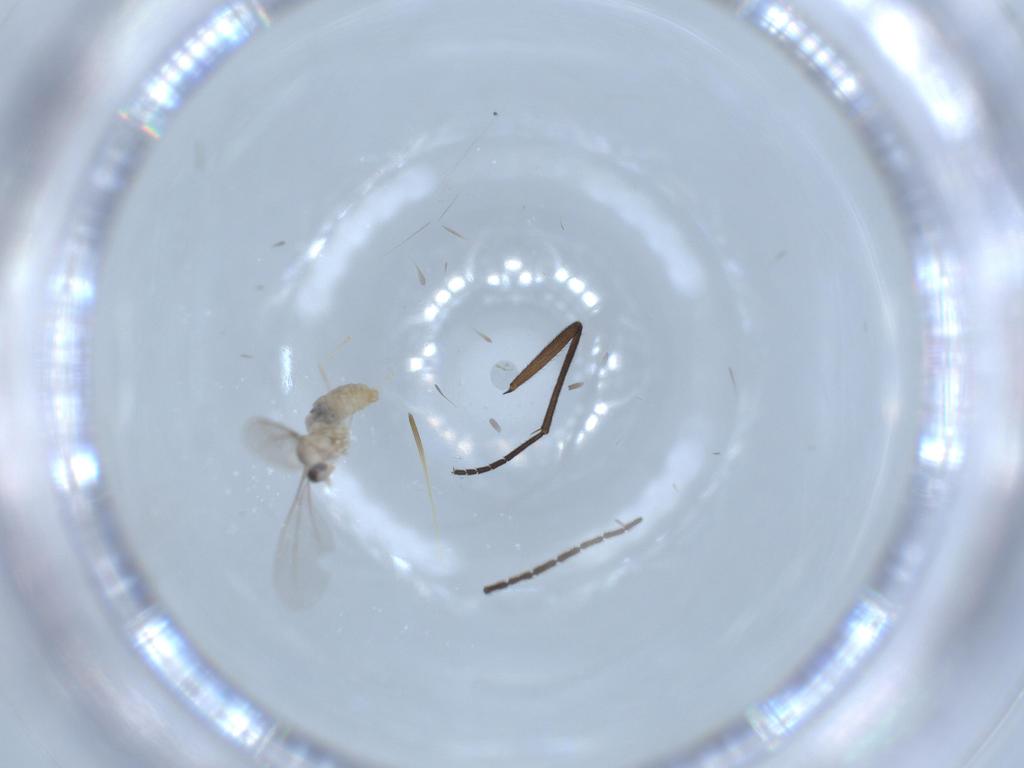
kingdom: Animalia
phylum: Arthropoda
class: Insecta
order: Diptera
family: Cecidomyiidae
